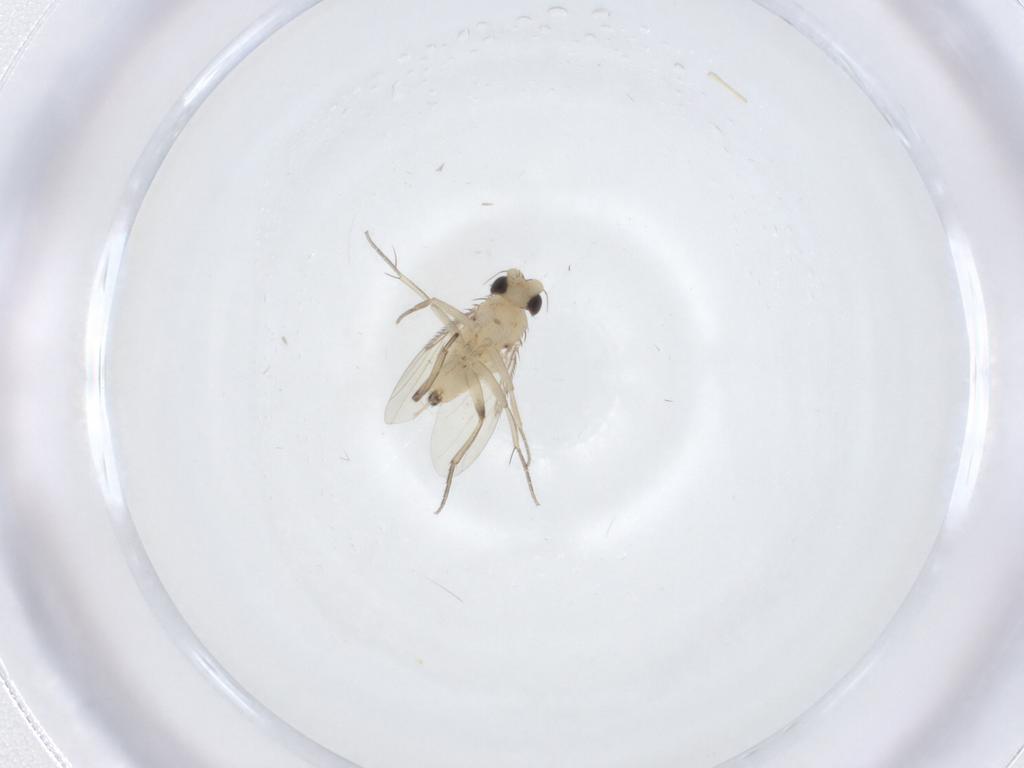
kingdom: Animalia
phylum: Arthropoda
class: Insecta
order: Diptera
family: Phoridae
